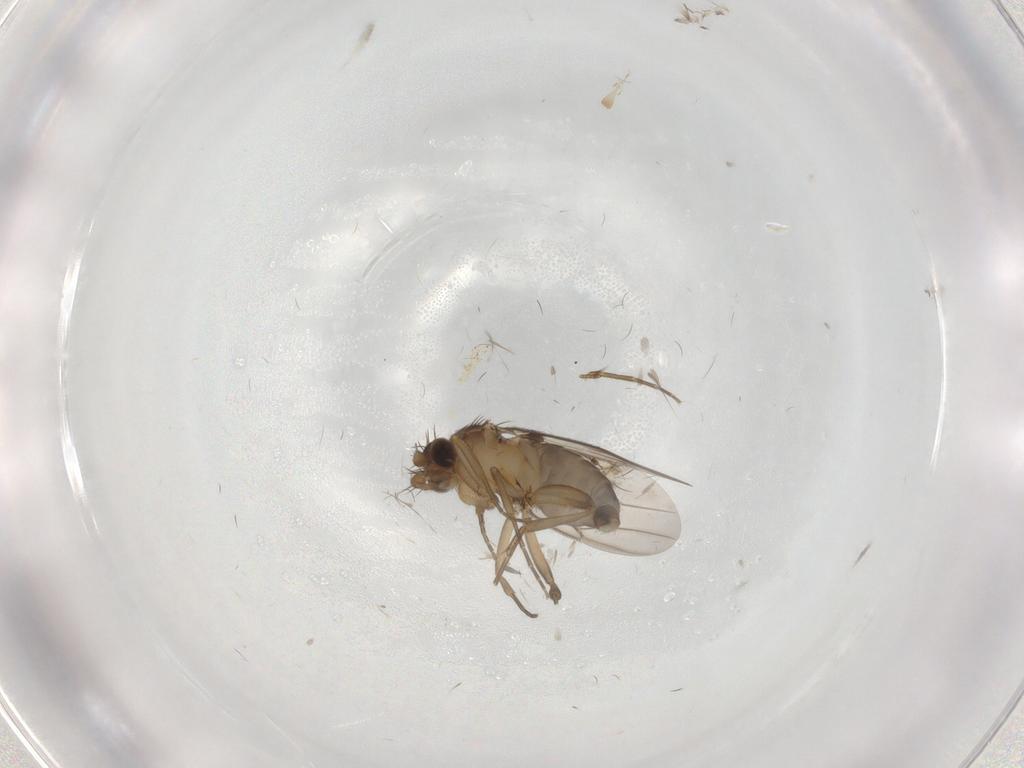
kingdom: Animalia
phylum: Arthropoda
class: Insecta
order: Diptera
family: Phoridae
